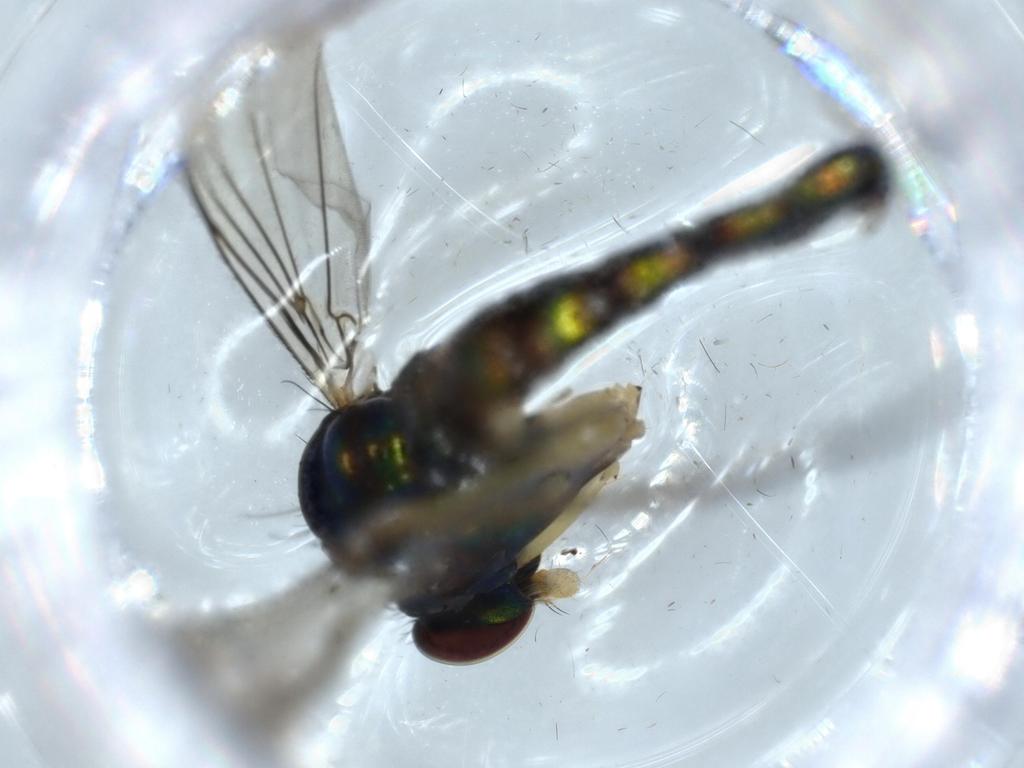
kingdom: Animalia
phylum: Arthropoda
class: Insecta
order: Diptera
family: Dolichopodidae
